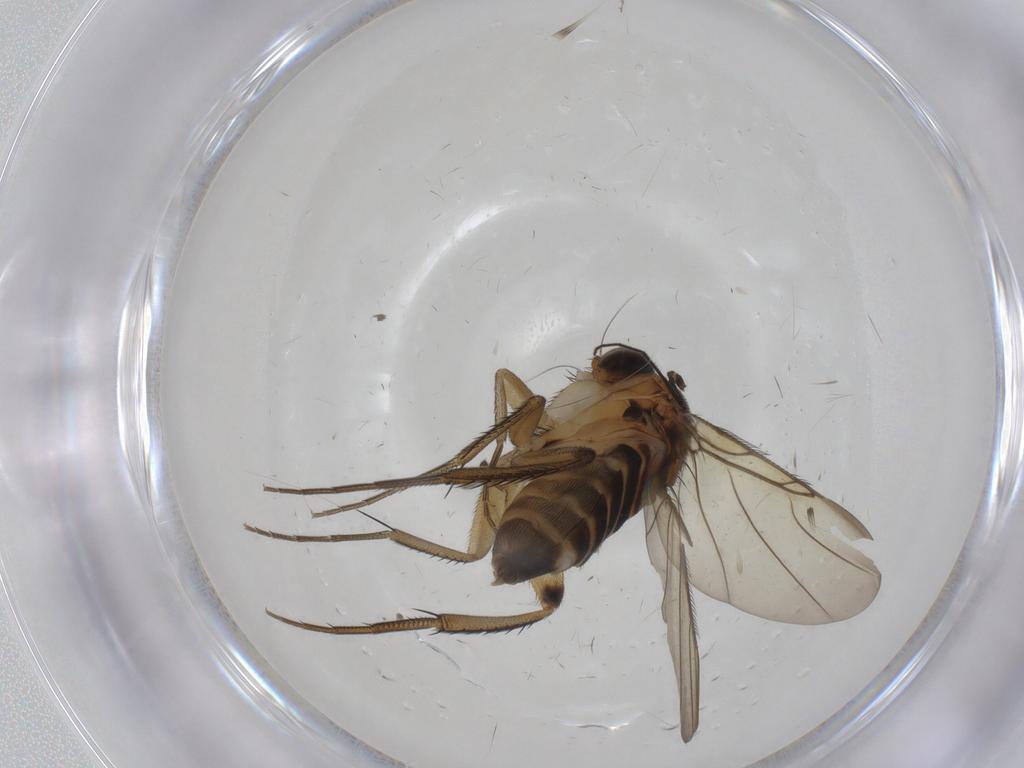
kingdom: Animalia
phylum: Arthropoda
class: Insecta
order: Diptera
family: Chironomidae
